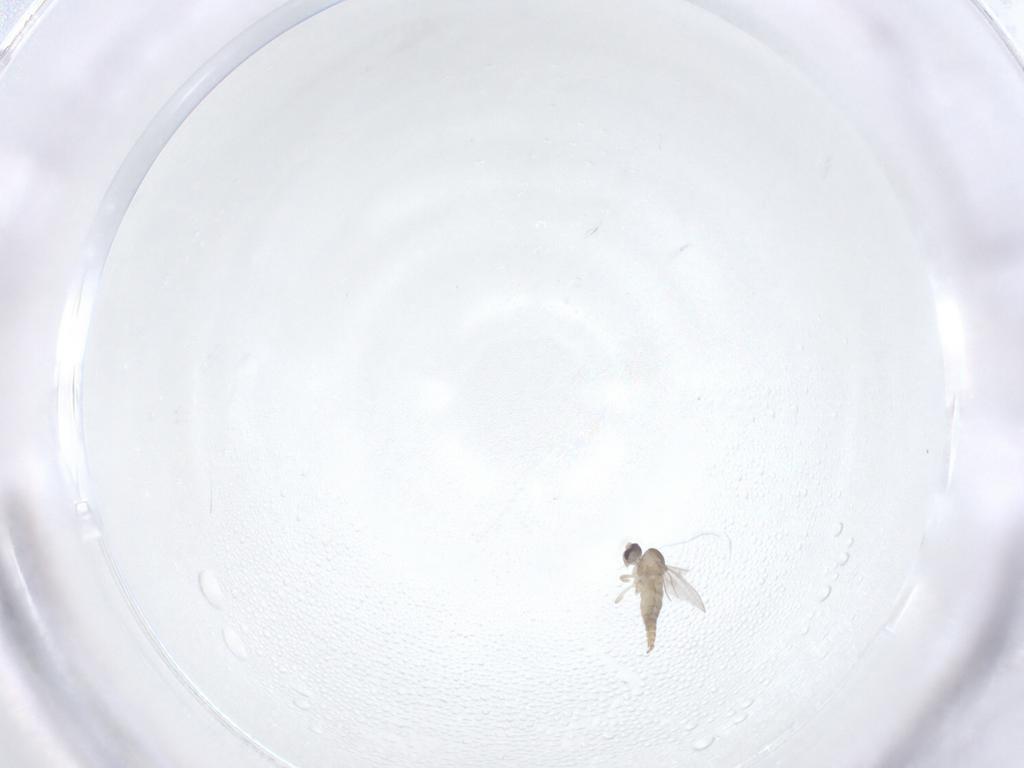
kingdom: Animalia
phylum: Arthropoda
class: Insecta
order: Diptera
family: Cecidomyiidae
